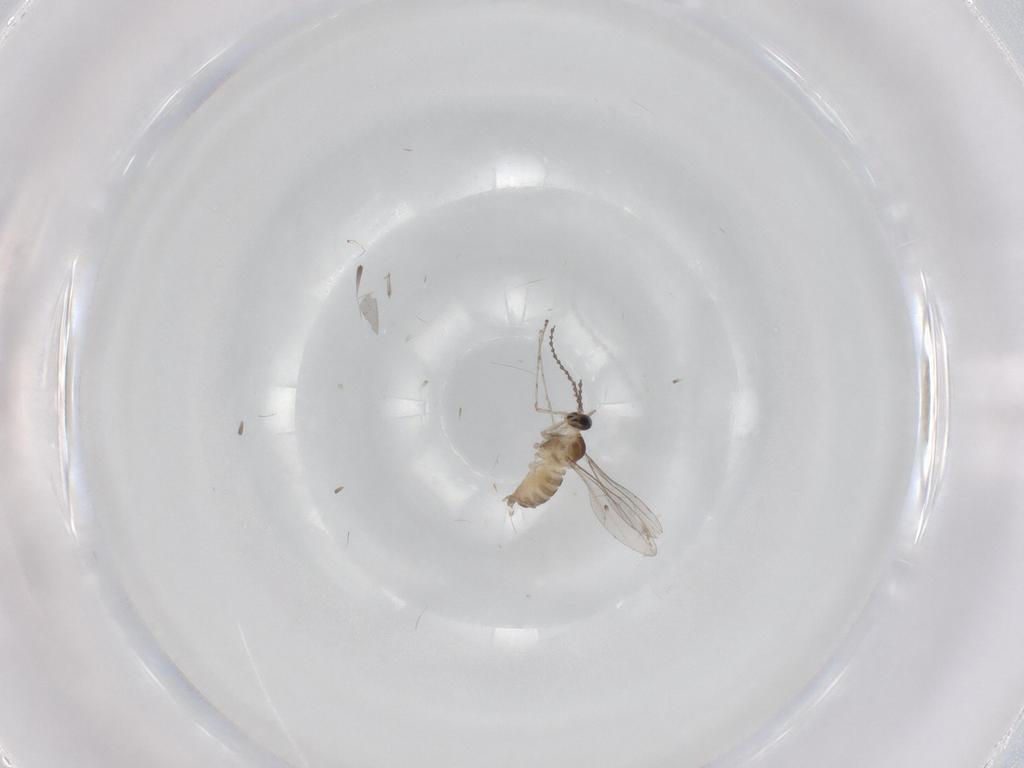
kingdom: Animalia
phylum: Arthropoda
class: Insecta
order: Diptera
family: Cecidomyiidae
